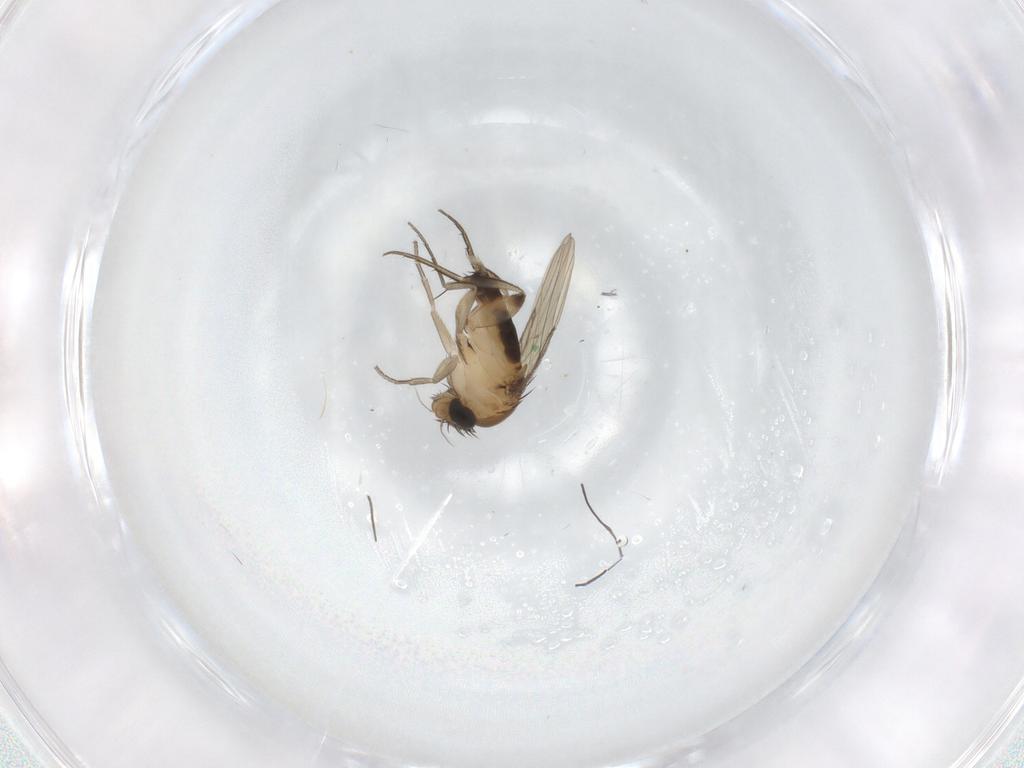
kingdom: Animalia
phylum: Arthropoda
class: Insecta
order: Diptera
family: Phoridae
